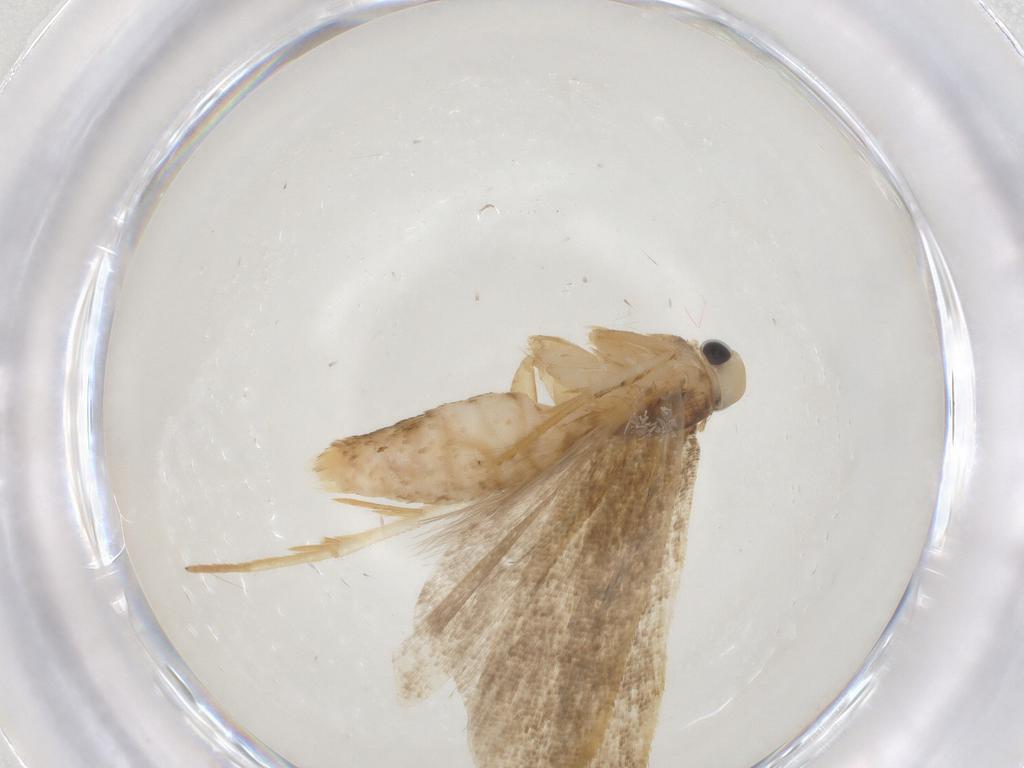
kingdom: Animalia
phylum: Arthropoda
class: Insecta
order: Lepidoptera
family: Gelechiidae
